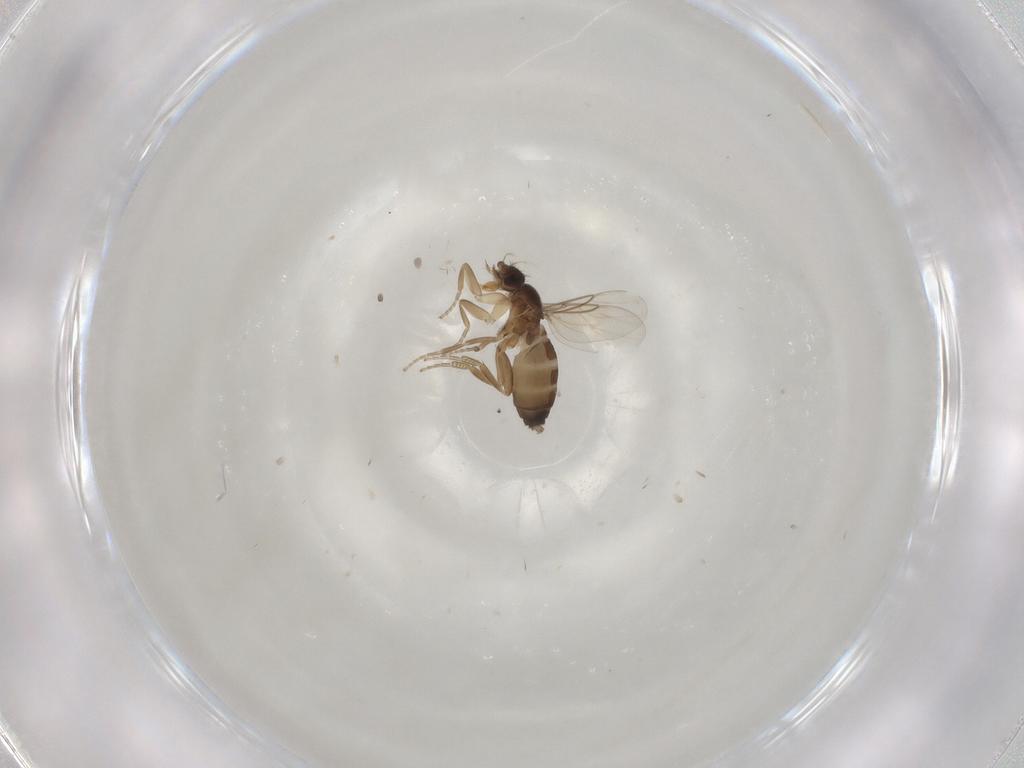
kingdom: Animalia
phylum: Arthropoda
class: Insecta
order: Diptera
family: Phoridae
